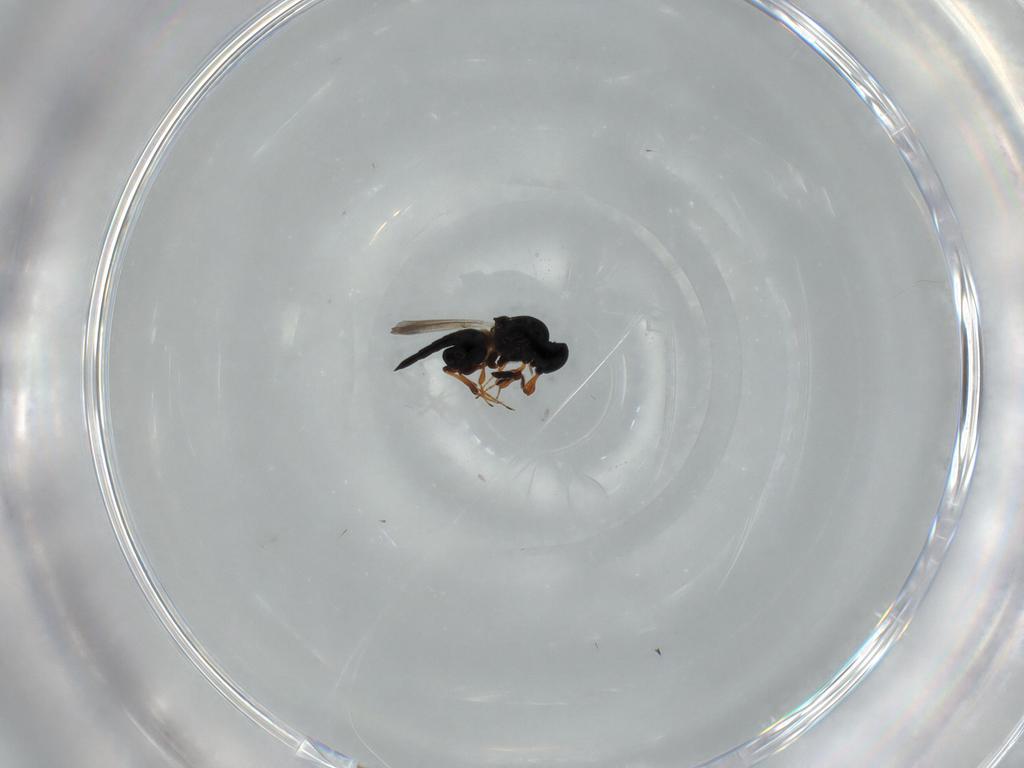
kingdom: Animalia
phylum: Arthropoda
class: Insecta
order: Hymenoptera
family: Platygastridae
